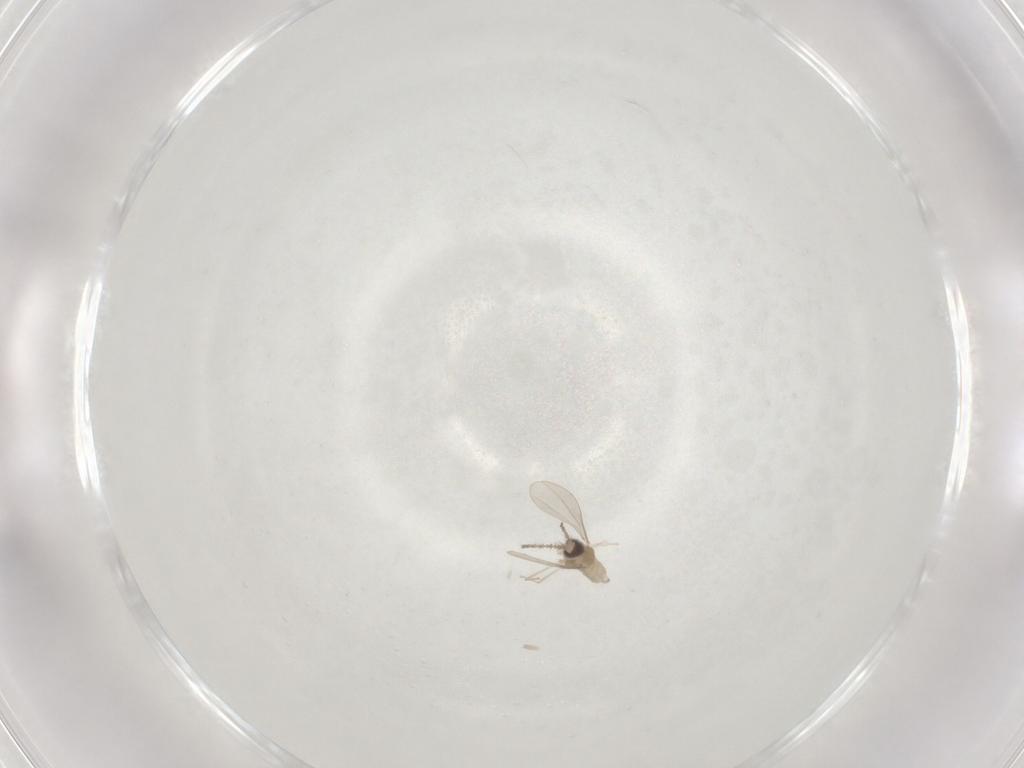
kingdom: Animalia
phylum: Arthropoda
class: Insecta
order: Diptera
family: Cecidomyiidae
